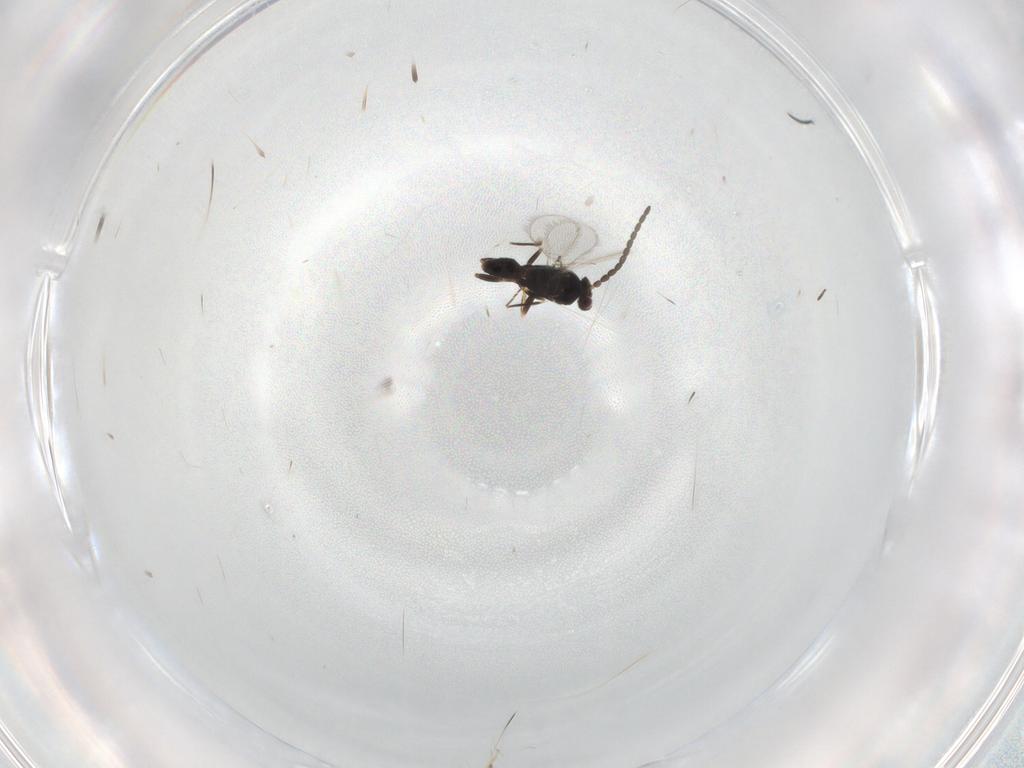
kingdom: Animalia
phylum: Arthropoda
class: Insecta
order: Hymenoptera
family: Mymaridae
